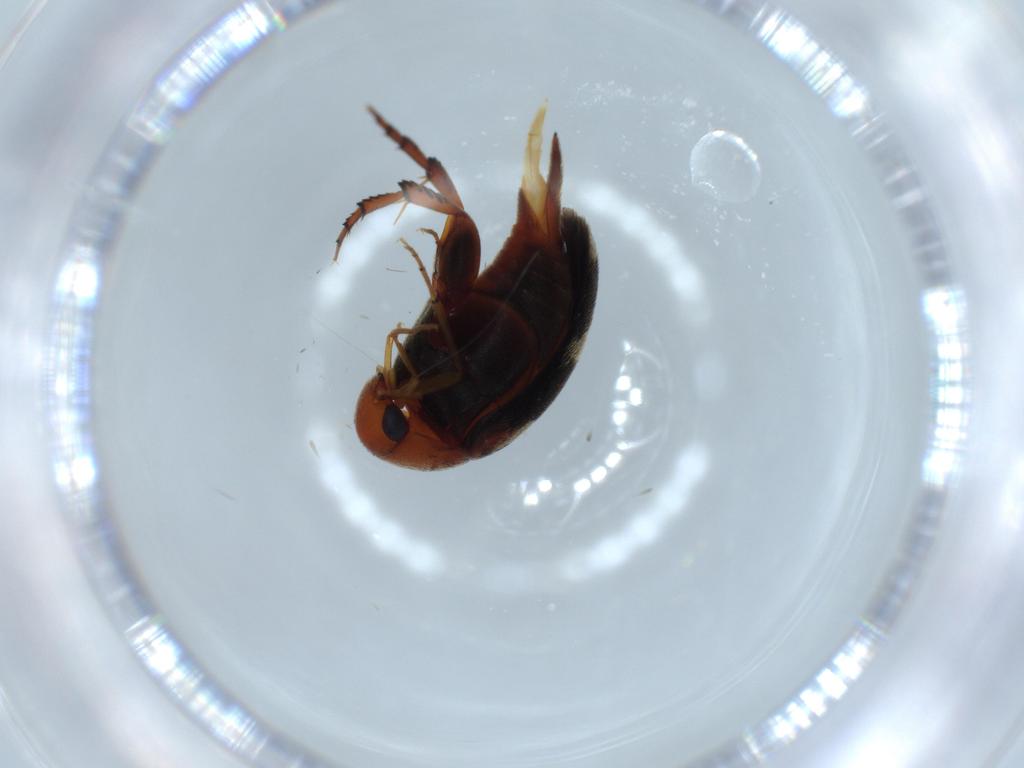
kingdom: Animalia
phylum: Arthropoda
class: Insecta
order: Coleoptera
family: Mordellidae
